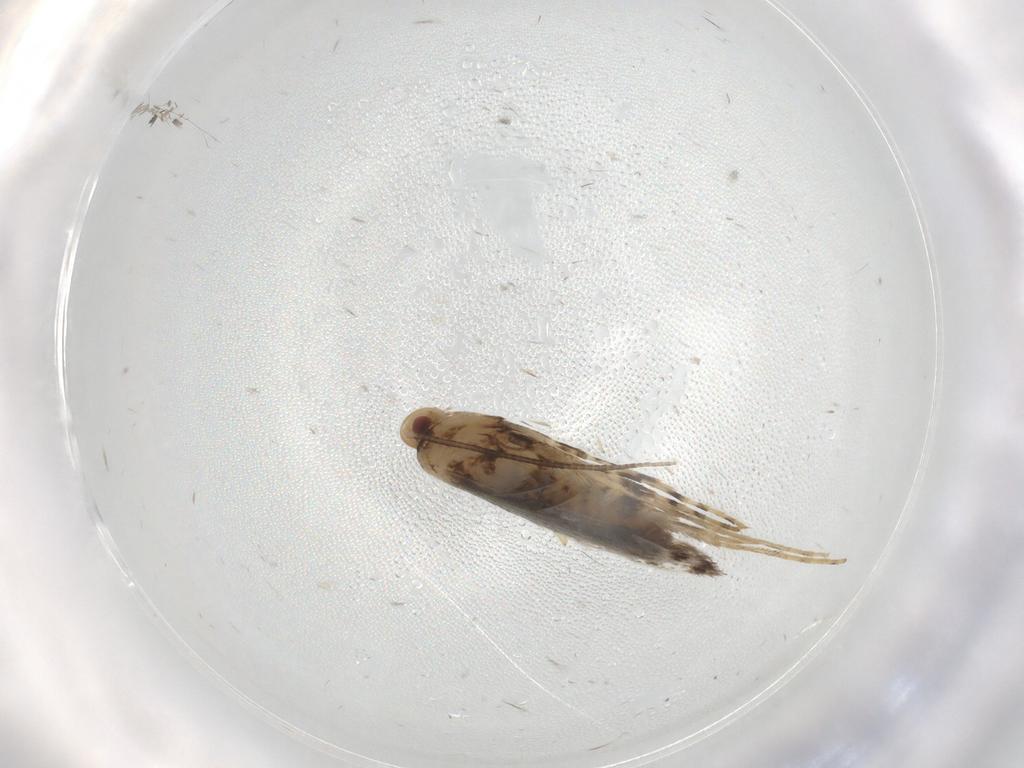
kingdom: Animalia
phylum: Arthropoda
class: Insecta
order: Lepidoptera
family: Gracillariidae
